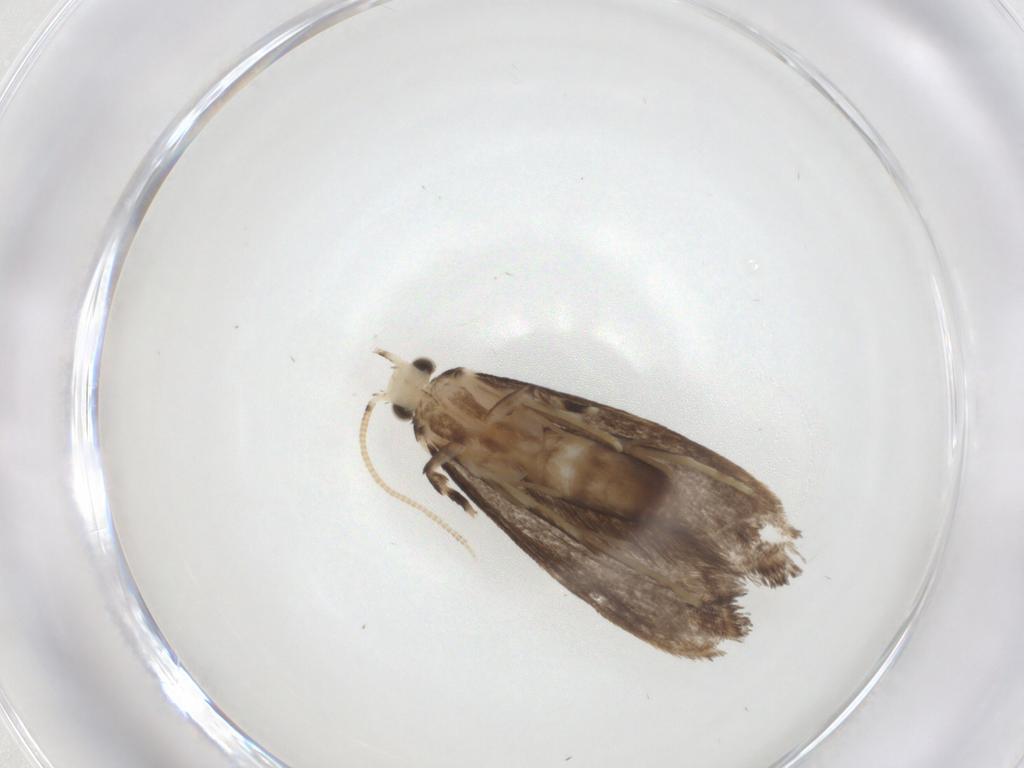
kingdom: Animalia
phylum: Arthropoda
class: Insecta
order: Lepidoptera
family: Dryadaulidae
